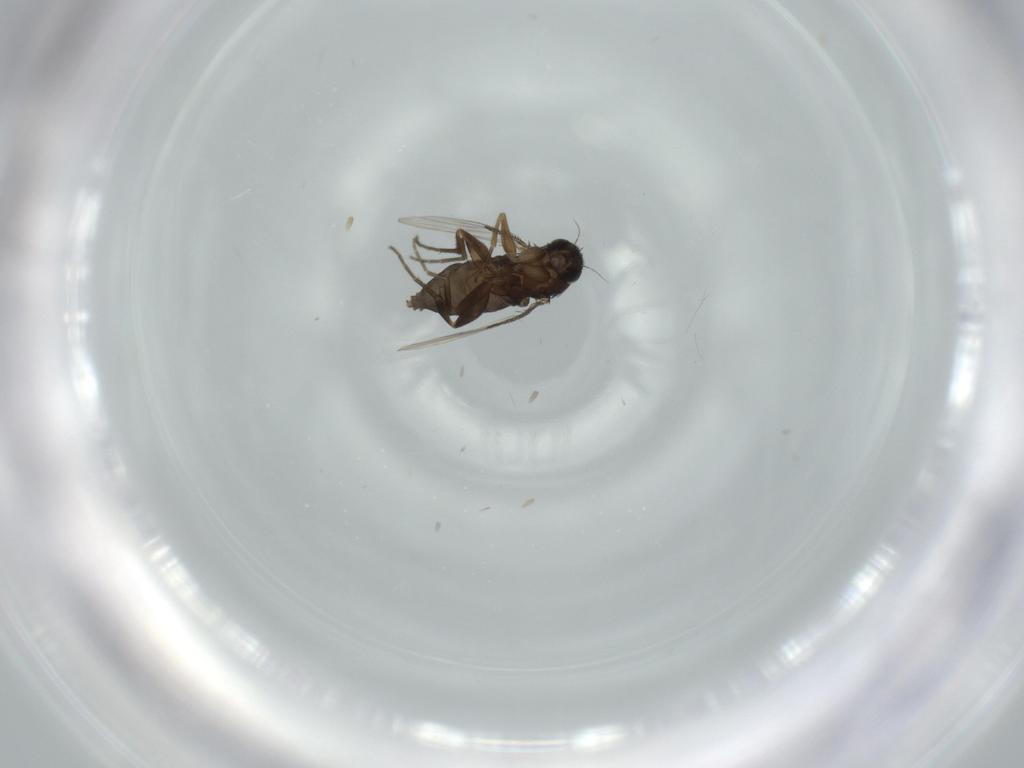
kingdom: Animalia
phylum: Arthropoda
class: Insecta
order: Diptera
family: Phoridae
